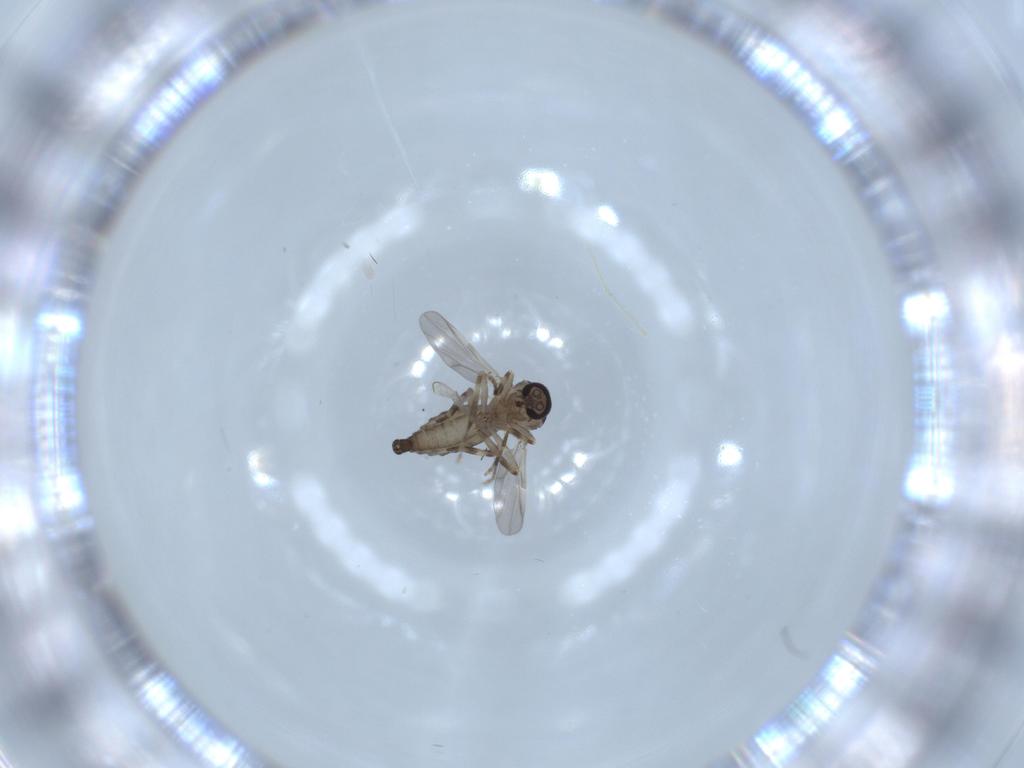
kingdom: Animalia
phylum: Arthropoda
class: Insecta
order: Diptera
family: Ceratopogonidae
